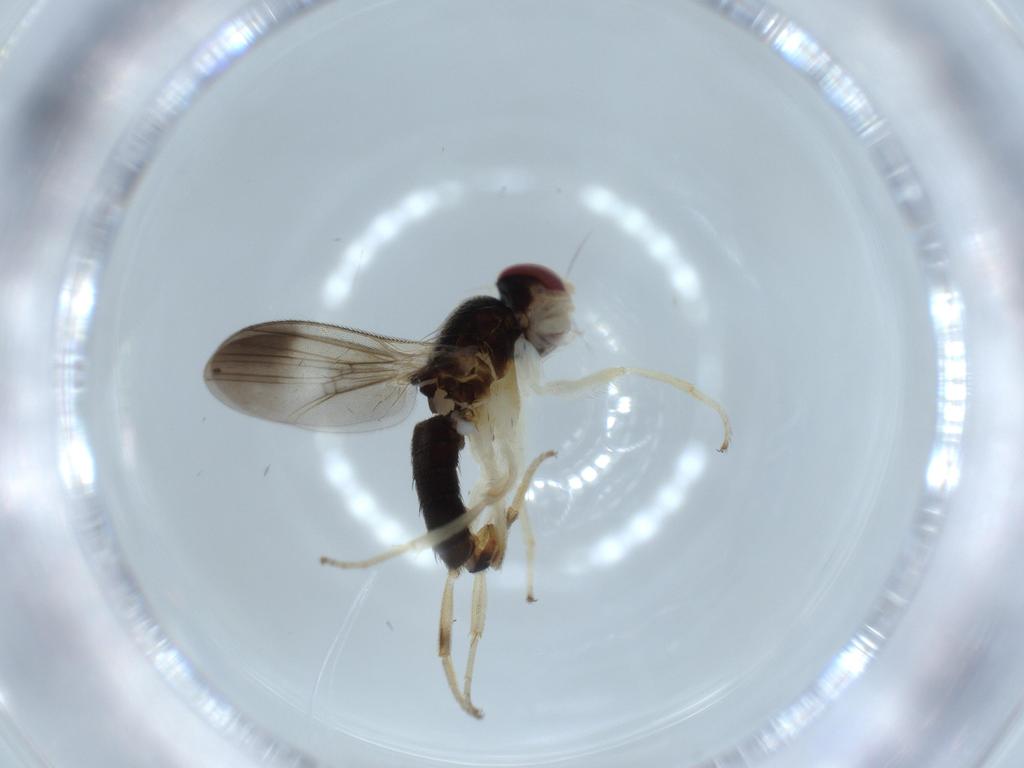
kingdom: Animalia
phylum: Arthropoda
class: Insecta
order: Diptera
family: Clusiidae
